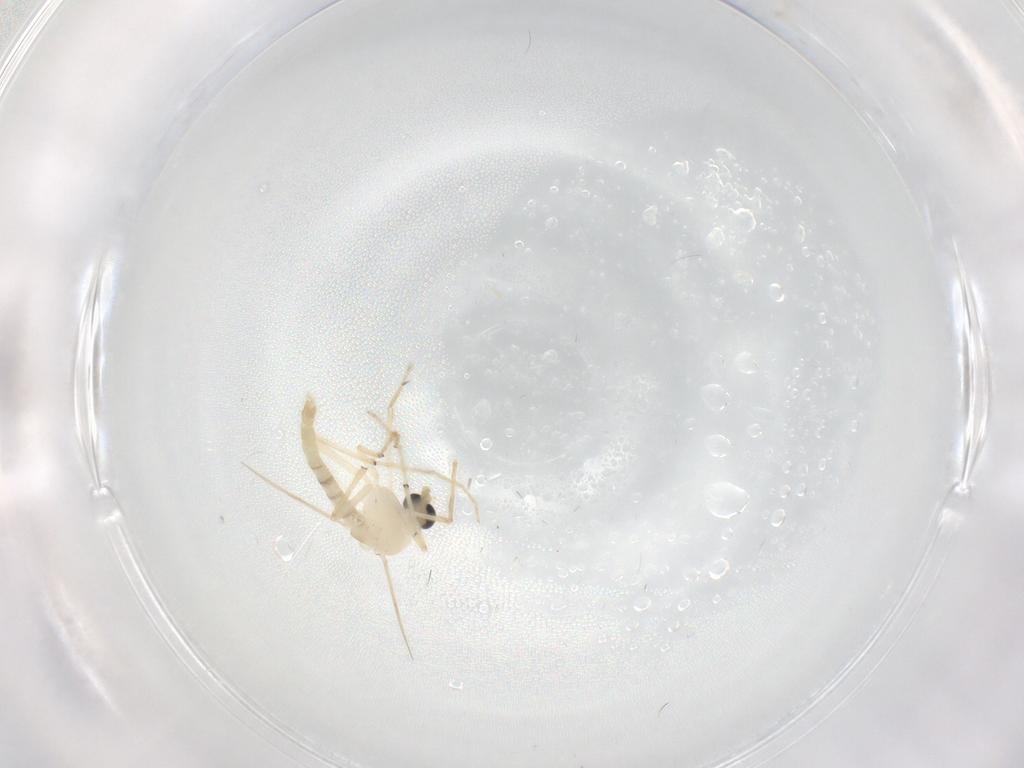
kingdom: Animalia
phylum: Arthropoda
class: Insecta
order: Diptera
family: Chironomidae
